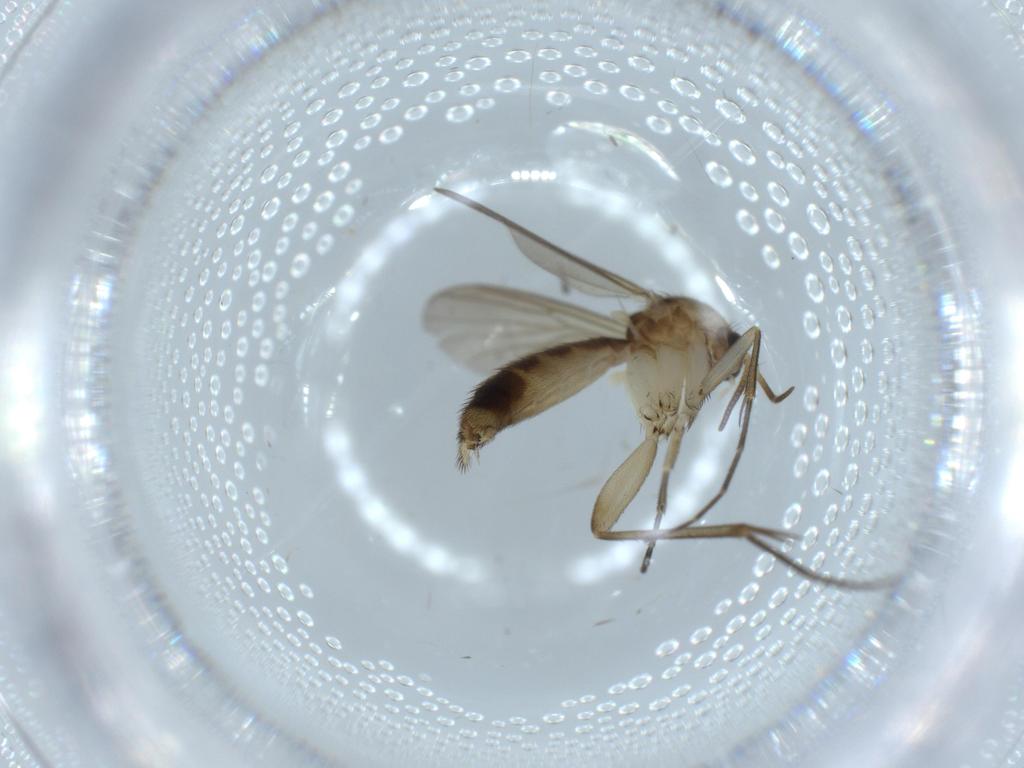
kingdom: Animalia
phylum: Arthropoda
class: Insecta
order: Diptera
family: Mycetophilidae
